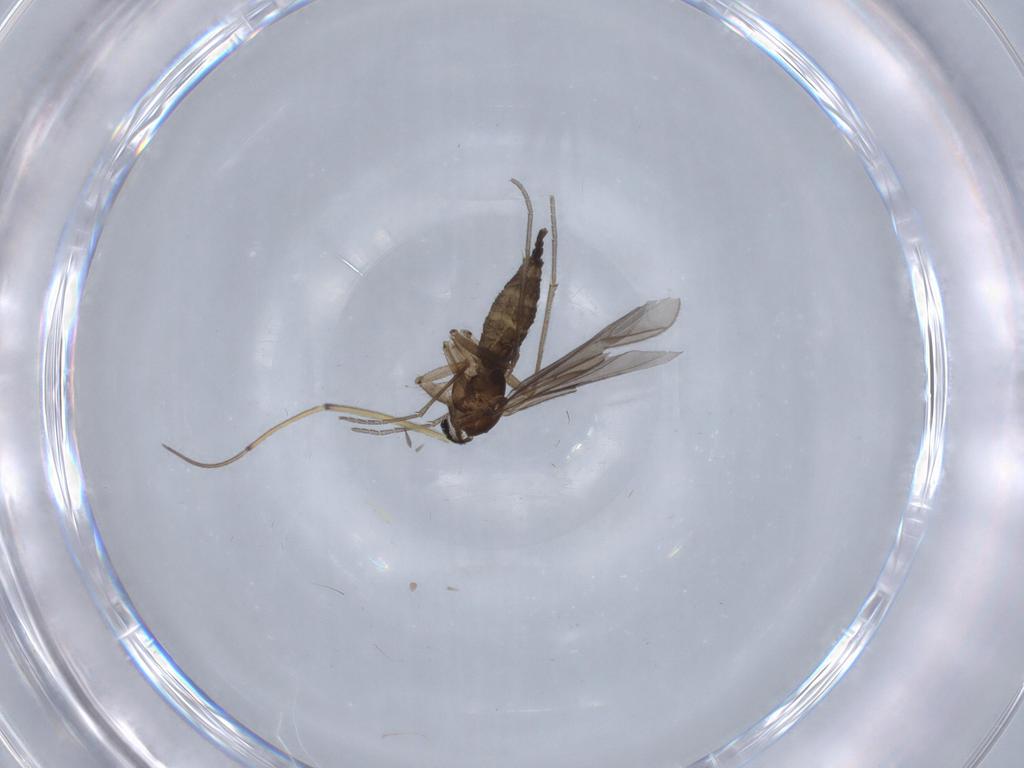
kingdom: Animalia
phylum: Arthropoda
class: Insecta
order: Diptera
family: Sciaridae
